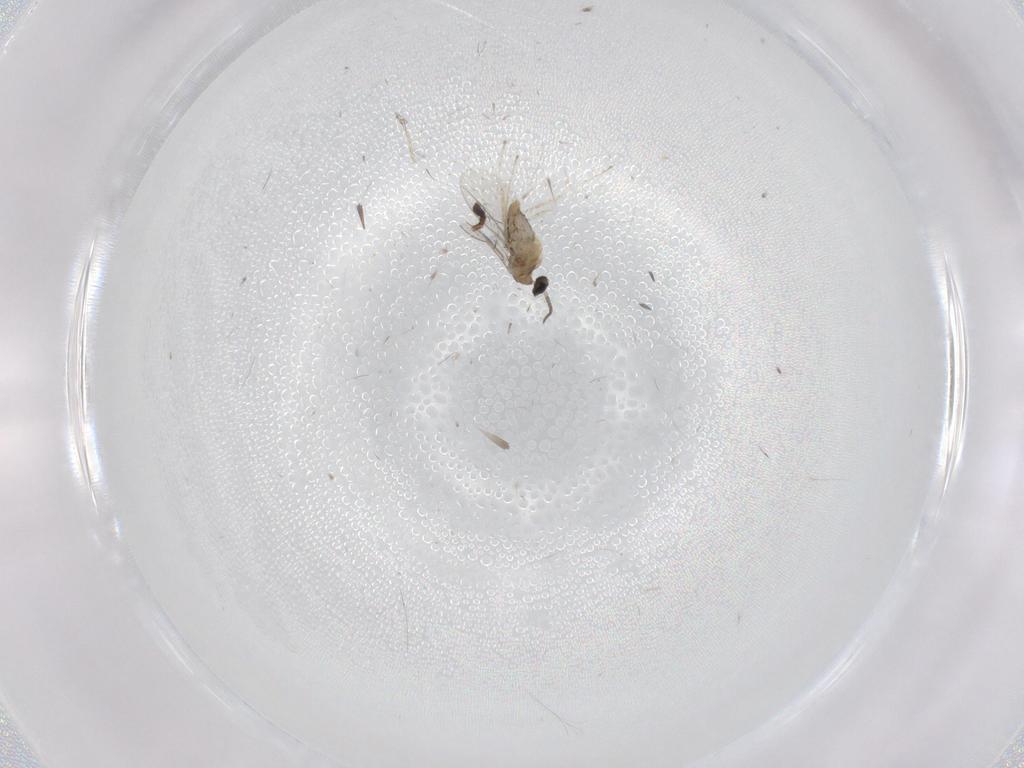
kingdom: Animalia
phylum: Arthropoda
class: Insecta
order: Diptera
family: Cecidomyiidae
